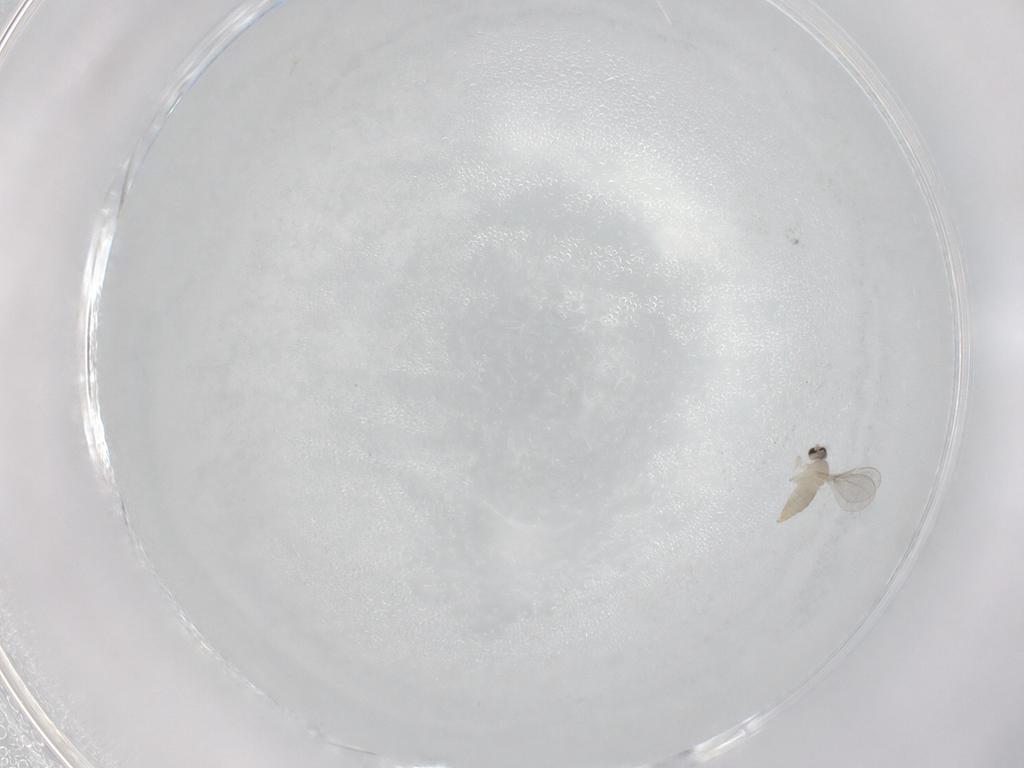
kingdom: Animalia
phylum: Arthropoda
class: Insecta
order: Diptera
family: Cecidomyiidae
